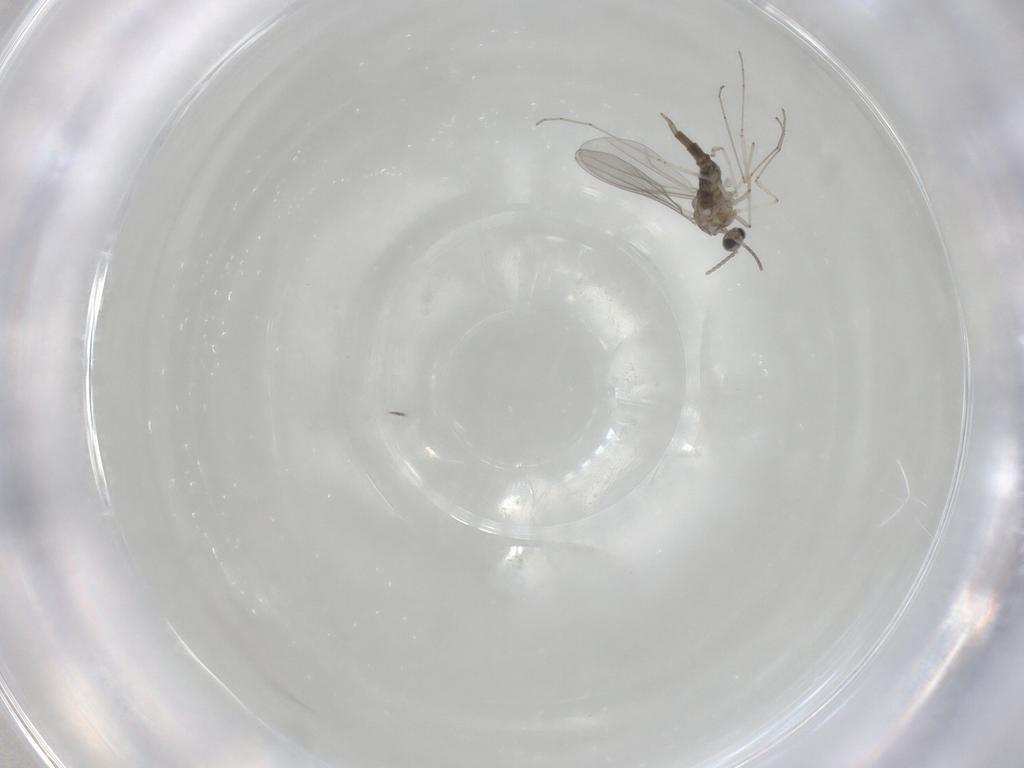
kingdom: Animalia
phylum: Arthropoda
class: Insecta
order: Diptera
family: Cecidomyiidae
